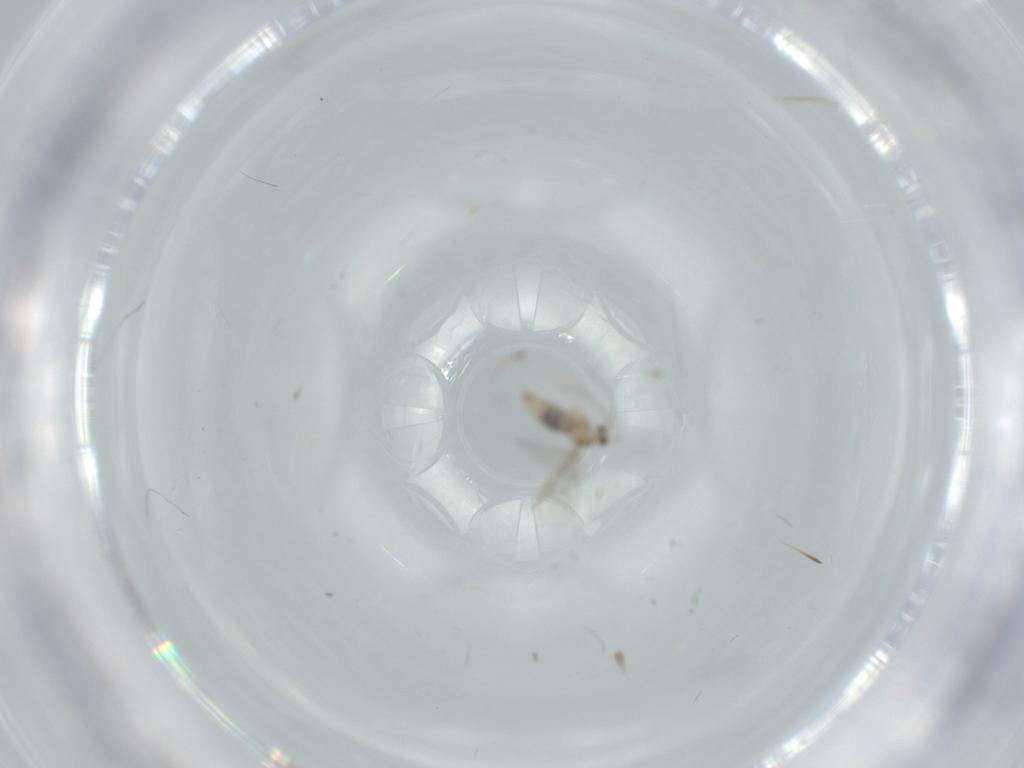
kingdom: Animalia
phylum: Arthropoda
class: Insecta
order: Diptera
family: Cecidomyiidae
